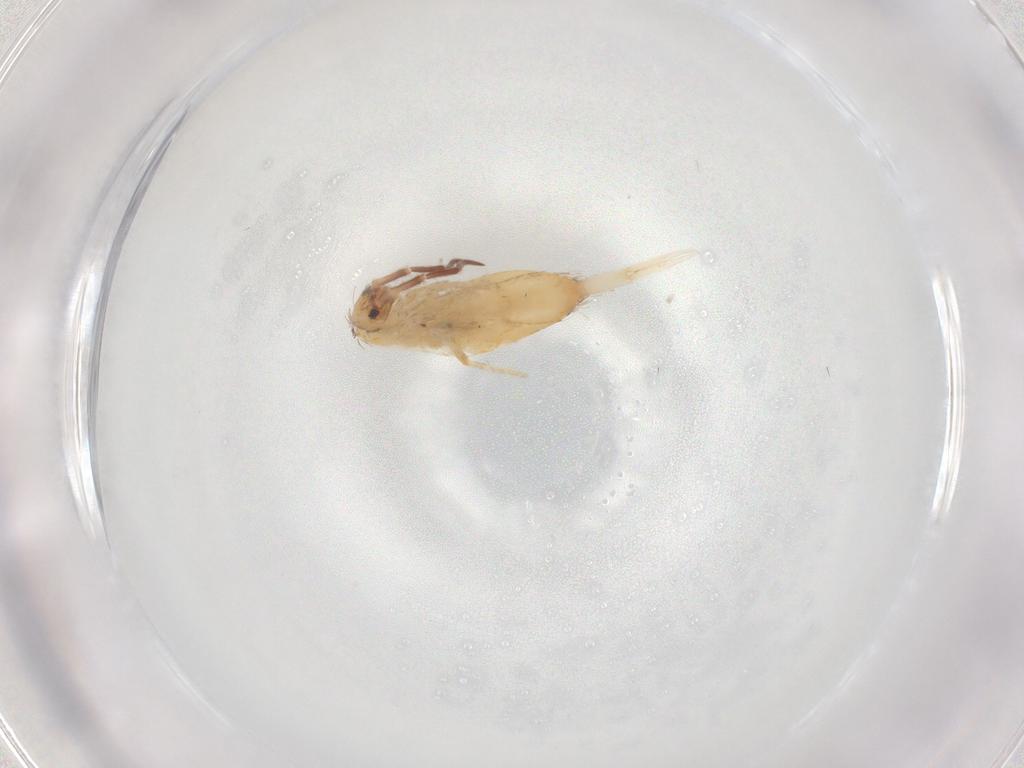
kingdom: Animalia
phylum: Arthropoda
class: Collembola
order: Entomobryomorpha
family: Entomobryidae
